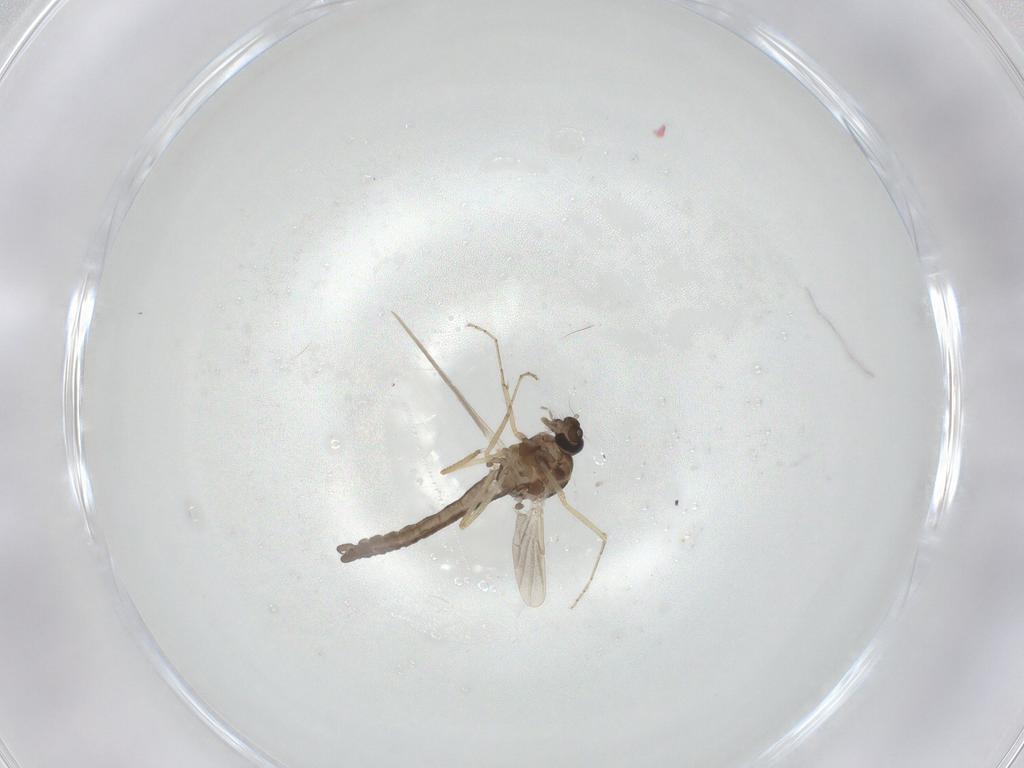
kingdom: Animalia
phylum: Arthropoda
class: Insecta
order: Diptera
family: Ceratopogonidae
